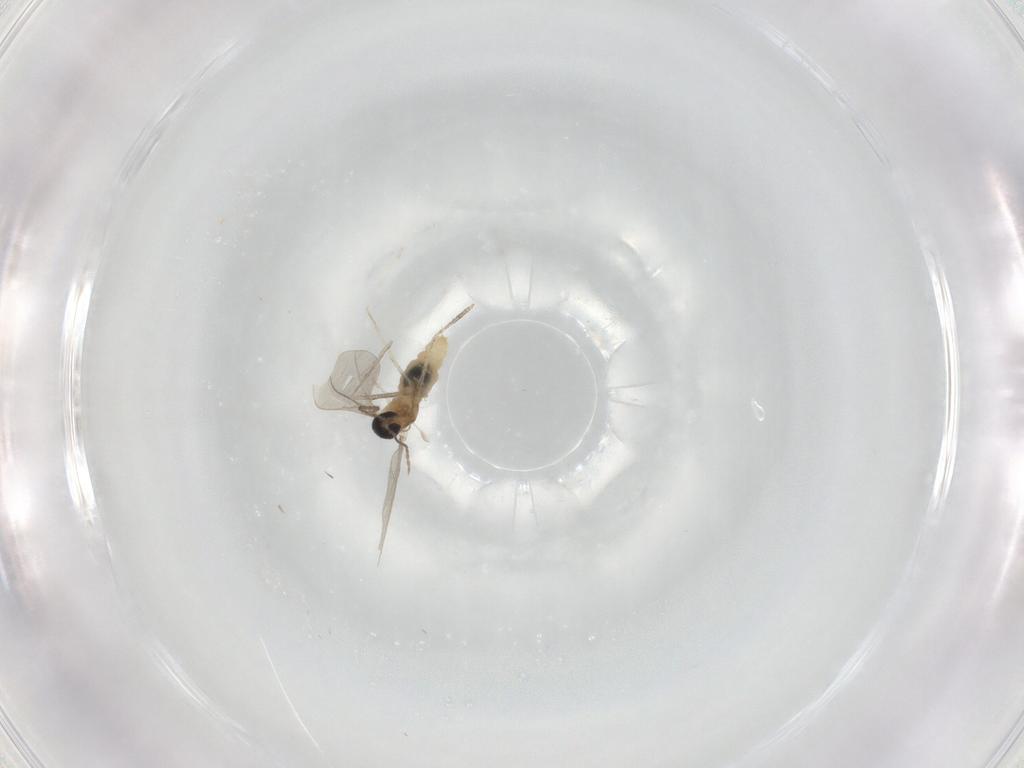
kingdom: Animalia
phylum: Arthropoda
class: Insecta
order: Diptera
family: Cecidomyiidae
